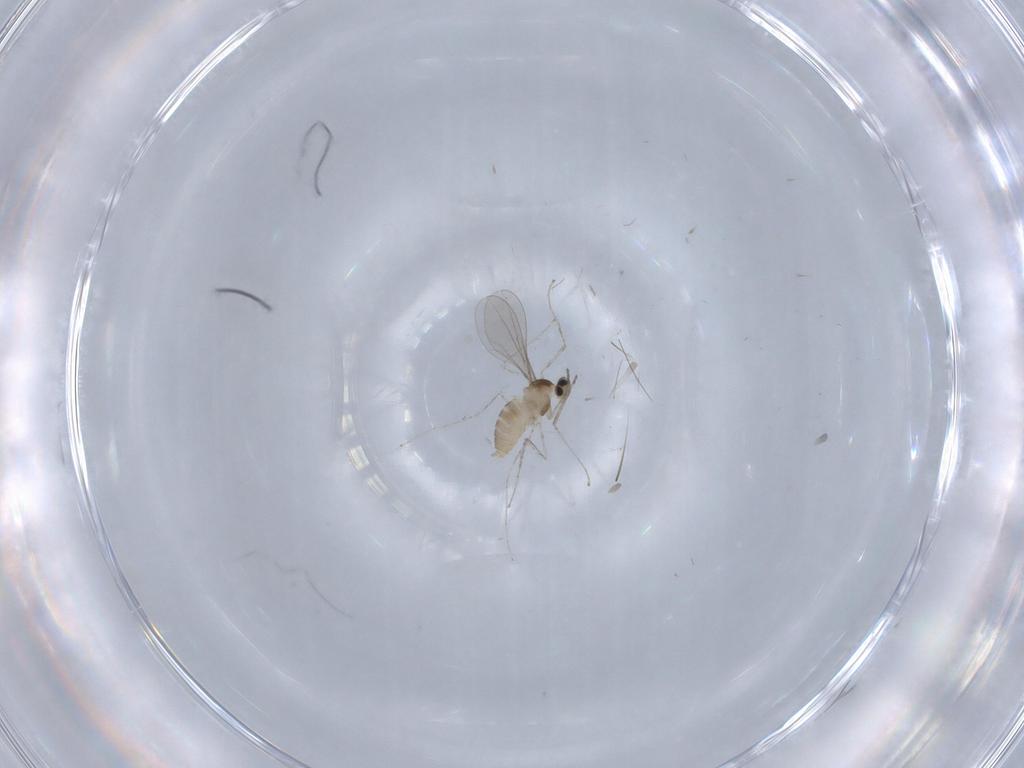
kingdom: Animalia
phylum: Arthropoda
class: Insecta
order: Diptera
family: Cecidomyiidae
